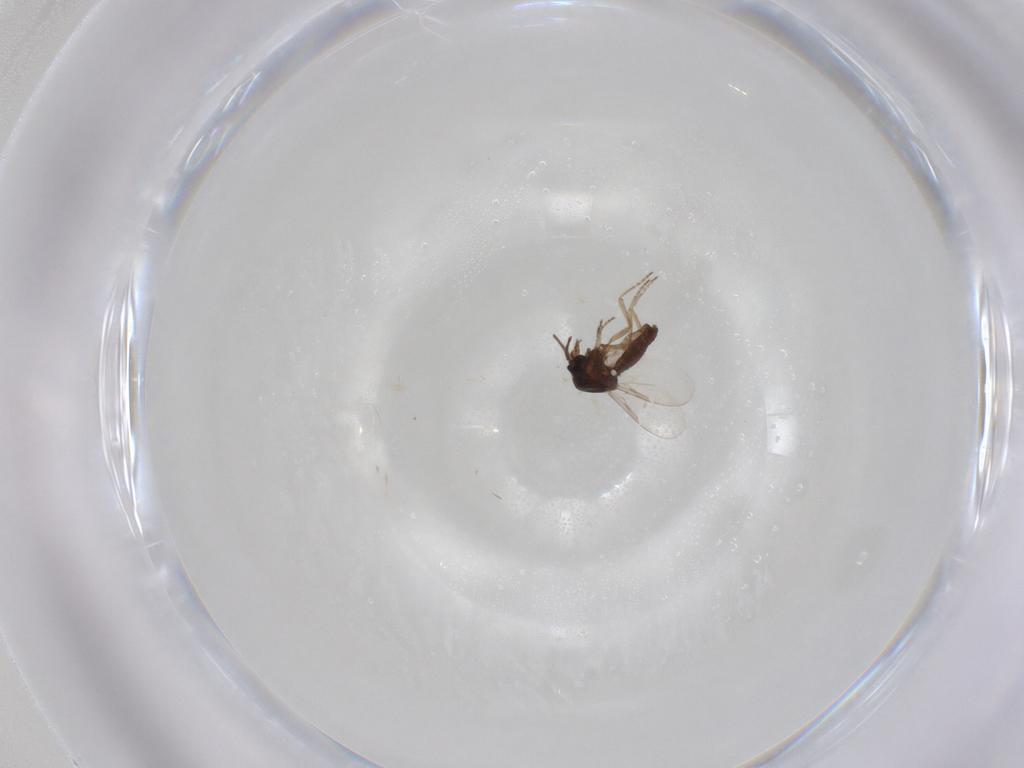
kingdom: Animalia
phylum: Arthropoda
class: Insecta
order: Diptera
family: Ceratopogonidae
